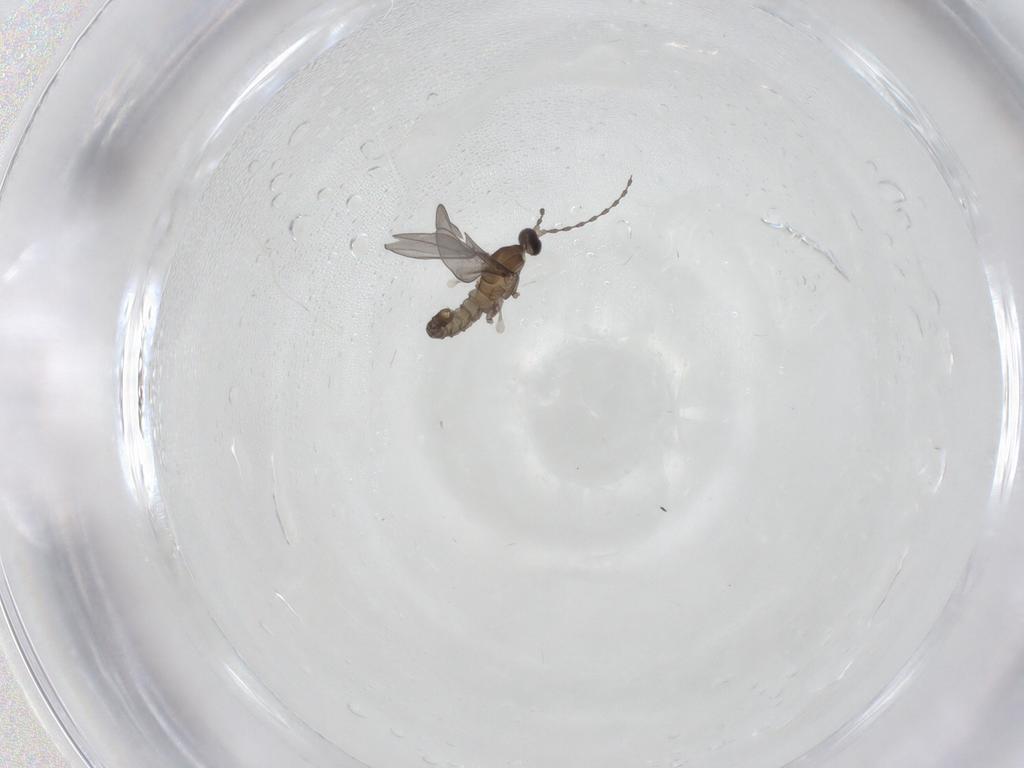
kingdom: Animalia
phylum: Arthropoda
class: Insecta
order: Diptera
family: Chironomidae
